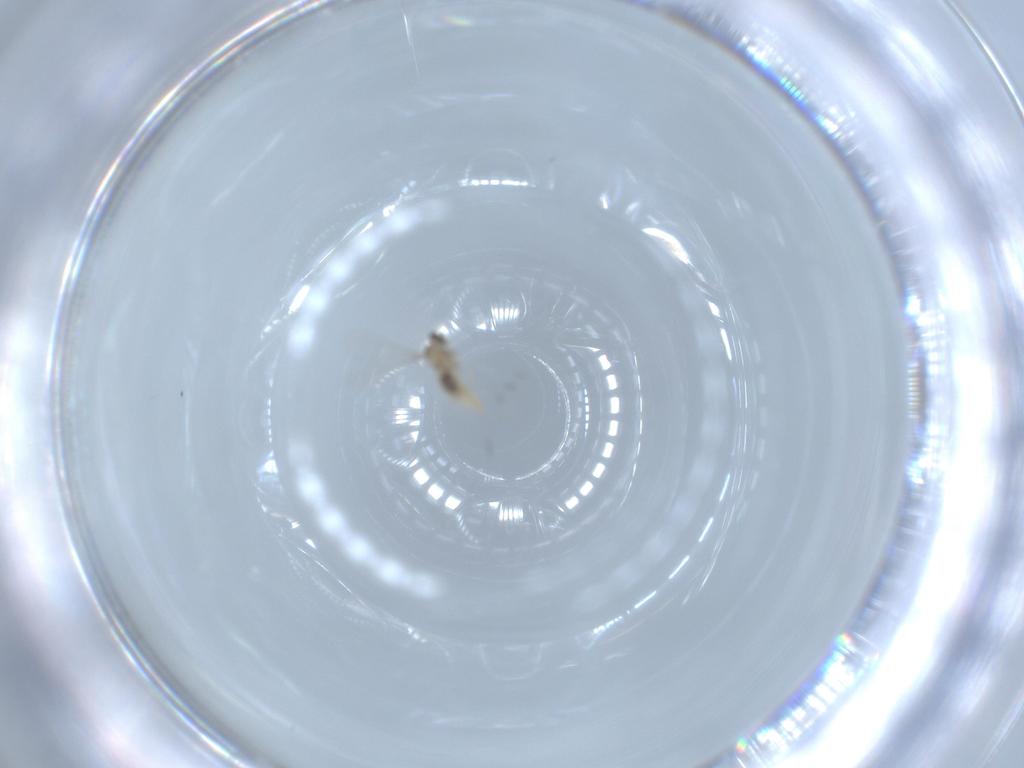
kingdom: Animalia
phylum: Arthropoda
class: Insecta
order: Diptera
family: Cecidomyiidae
